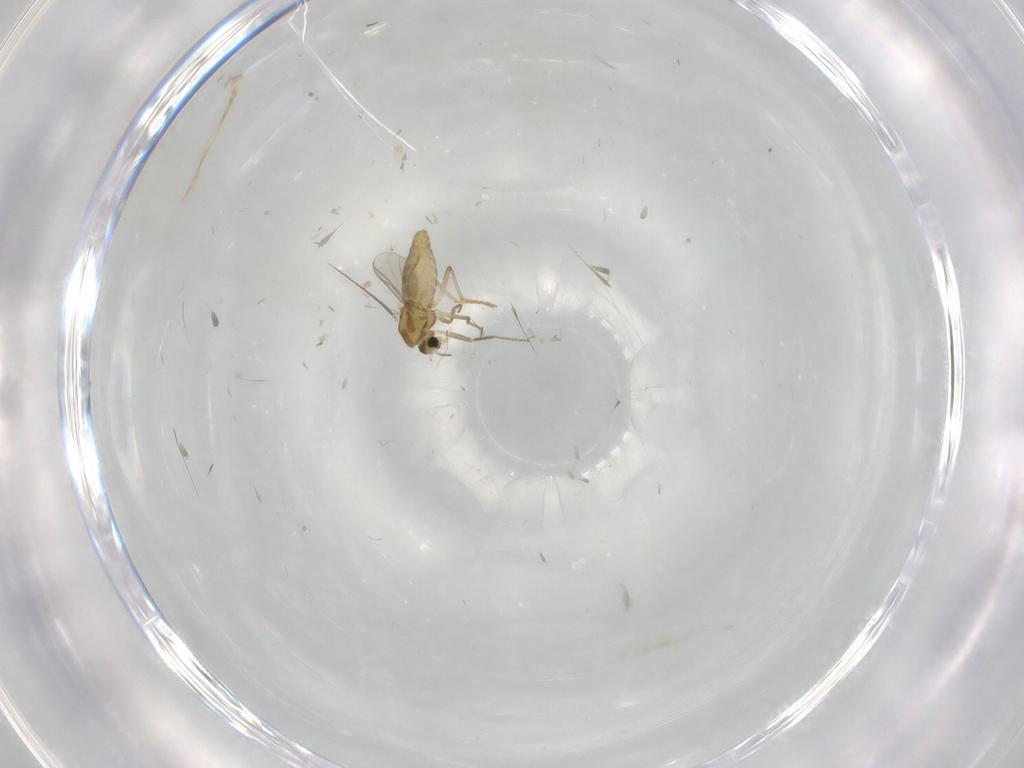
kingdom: Animalia
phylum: Arthropoda
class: Insecta
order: Diptera
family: Chironomidae
